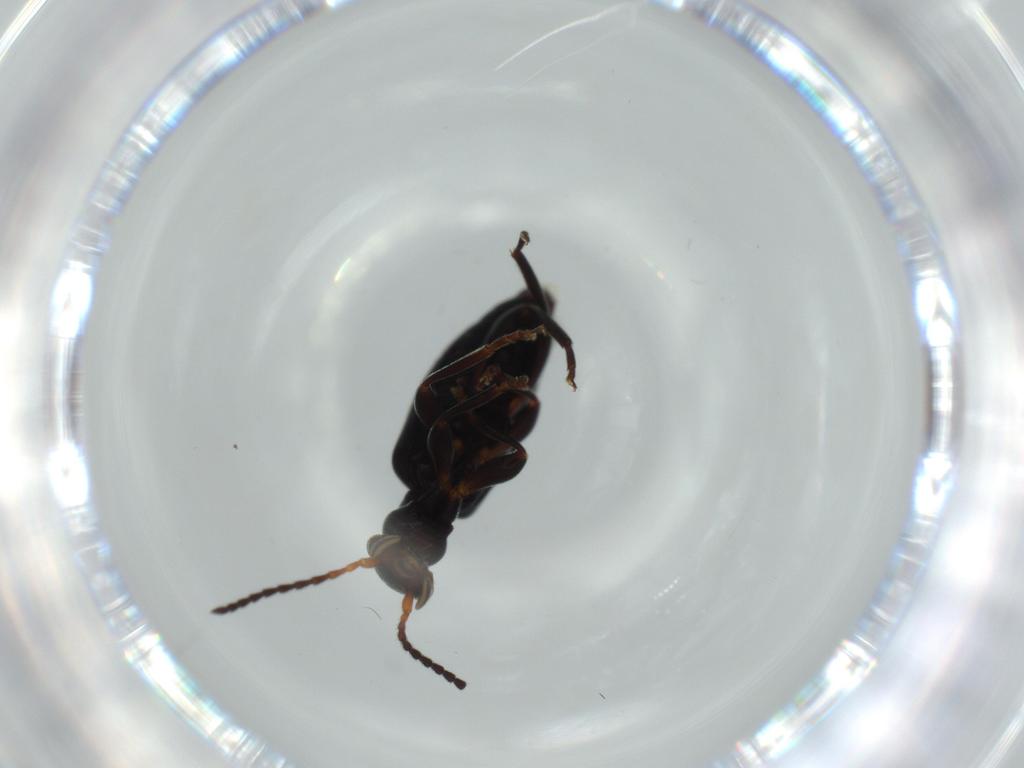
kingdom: Animalia
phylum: Arthropoda
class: Insecta
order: Coleoptera
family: Anthicidae
